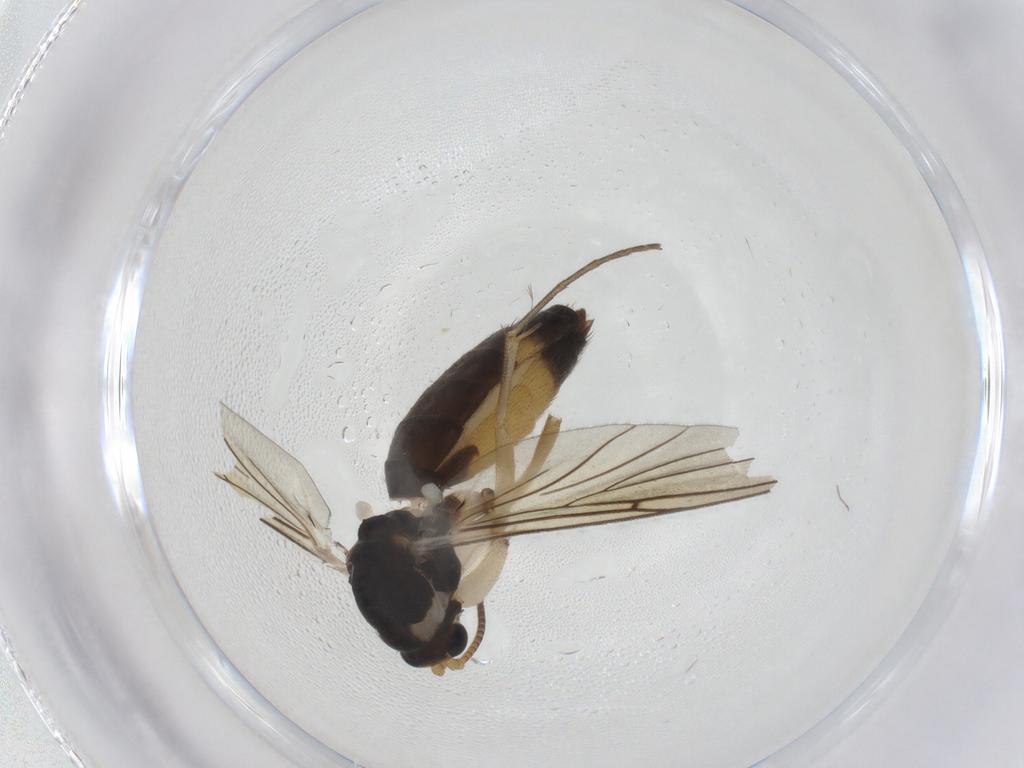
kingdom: Animalia
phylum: Arthropoda
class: Insecta
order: Diptera
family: Mycetophilidae
